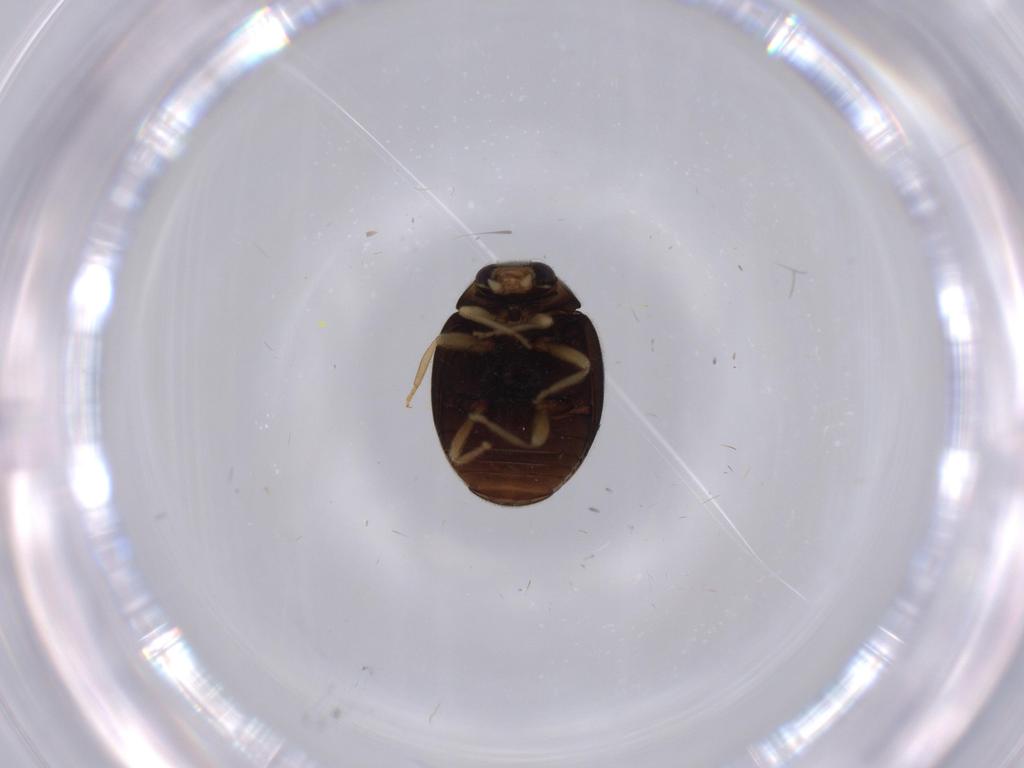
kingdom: Animalia
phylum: Arthropoda
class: Insecta
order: Coleoptera
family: Coccinellidae
